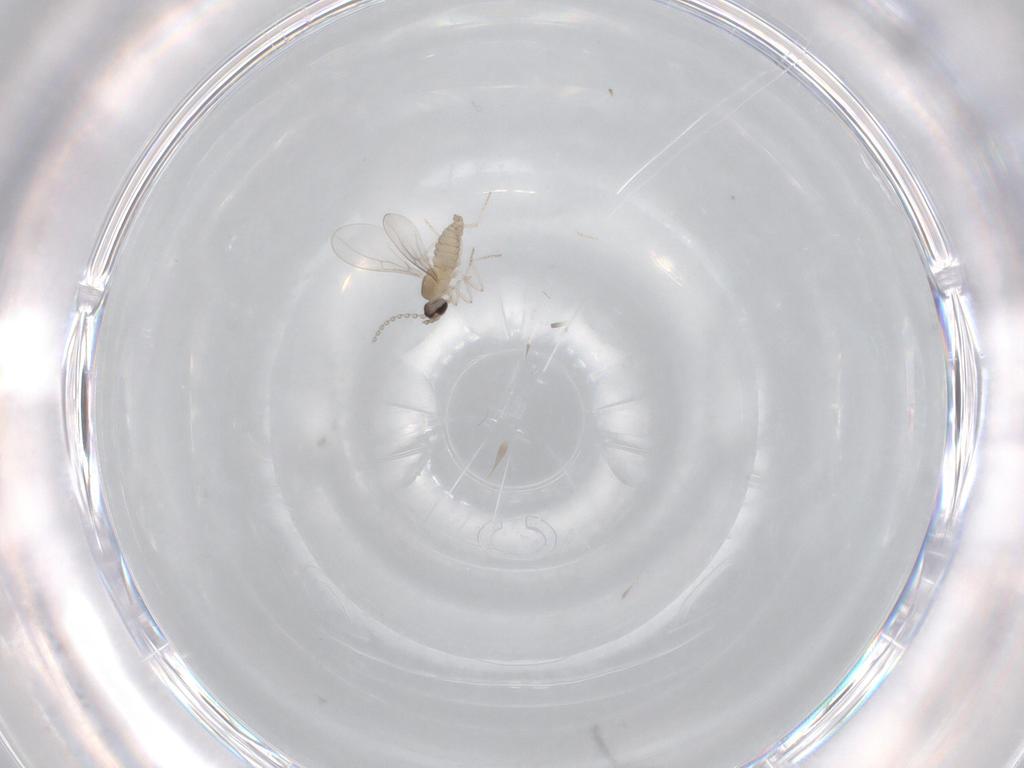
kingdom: Animalia
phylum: Arthropoda
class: Insecta
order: Diptera
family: Cecidomyiidae
